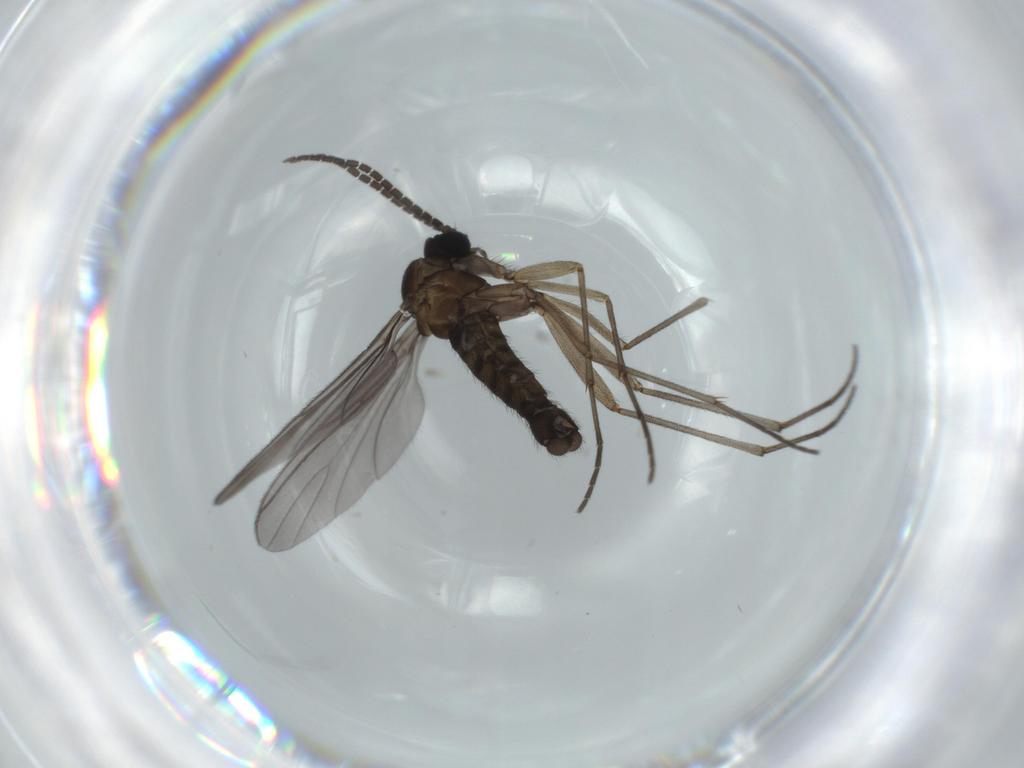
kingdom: Animalia
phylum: Arthropoda
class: Insecta
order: Diptera
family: Sciaridae
